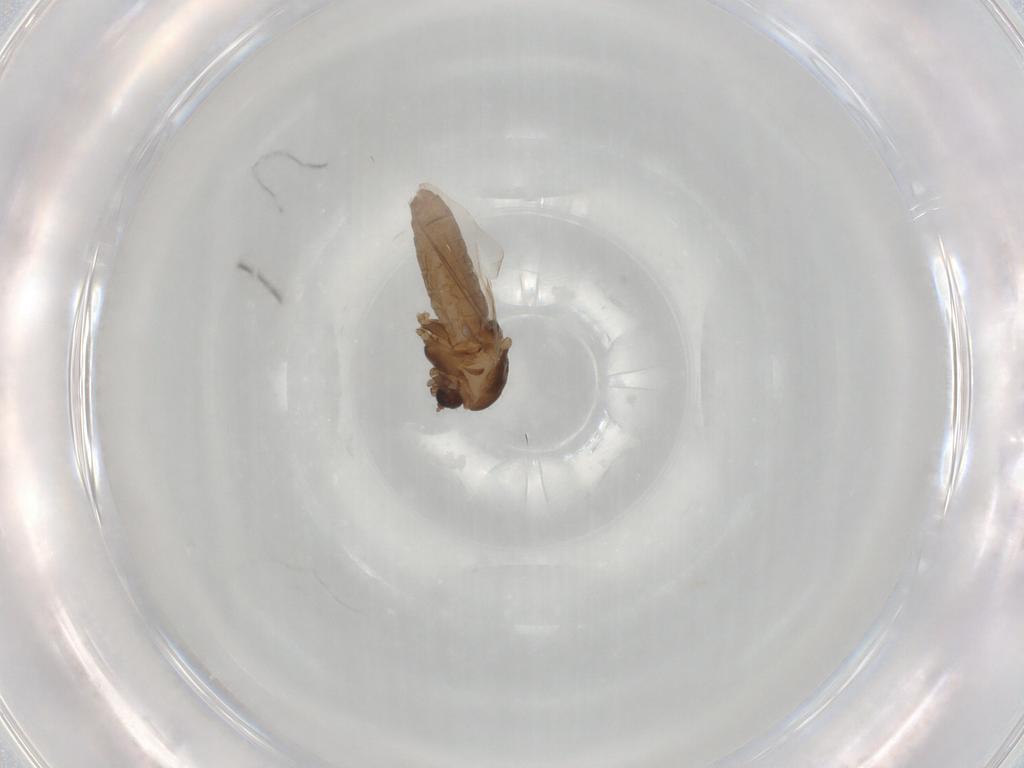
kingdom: Animalia
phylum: Arthropoda
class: Insecta
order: Diptera
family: Chironomidae
